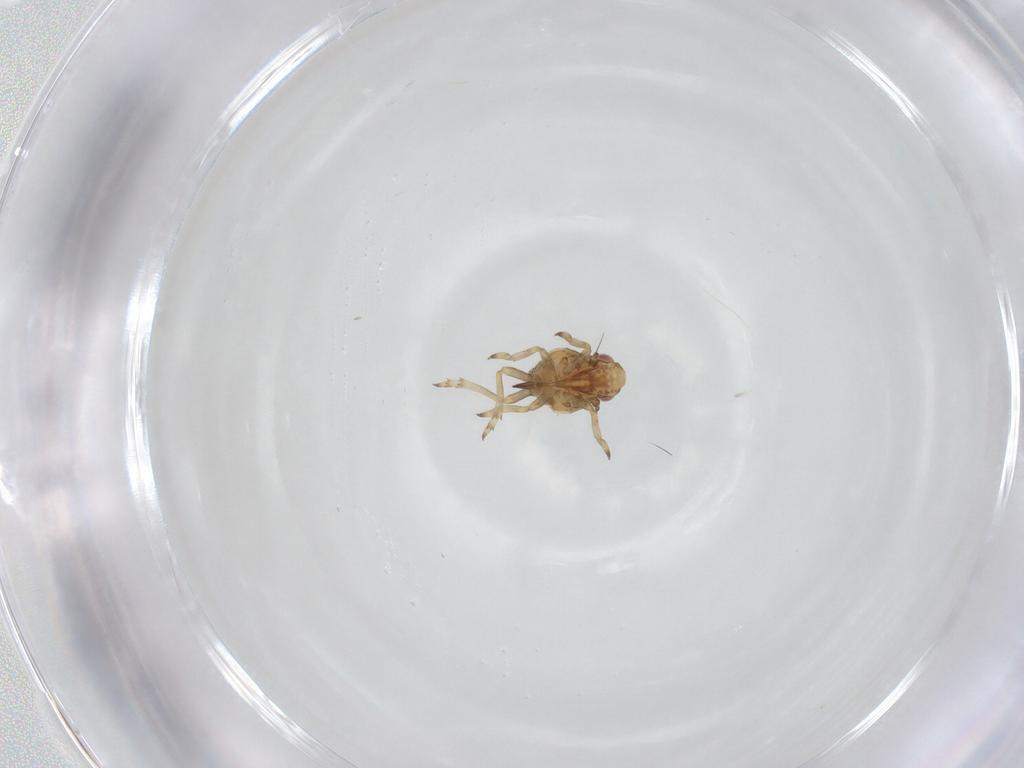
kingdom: Animalia
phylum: Arthropoda
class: Insecta
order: Hemiptera
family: Tropiduchidae
